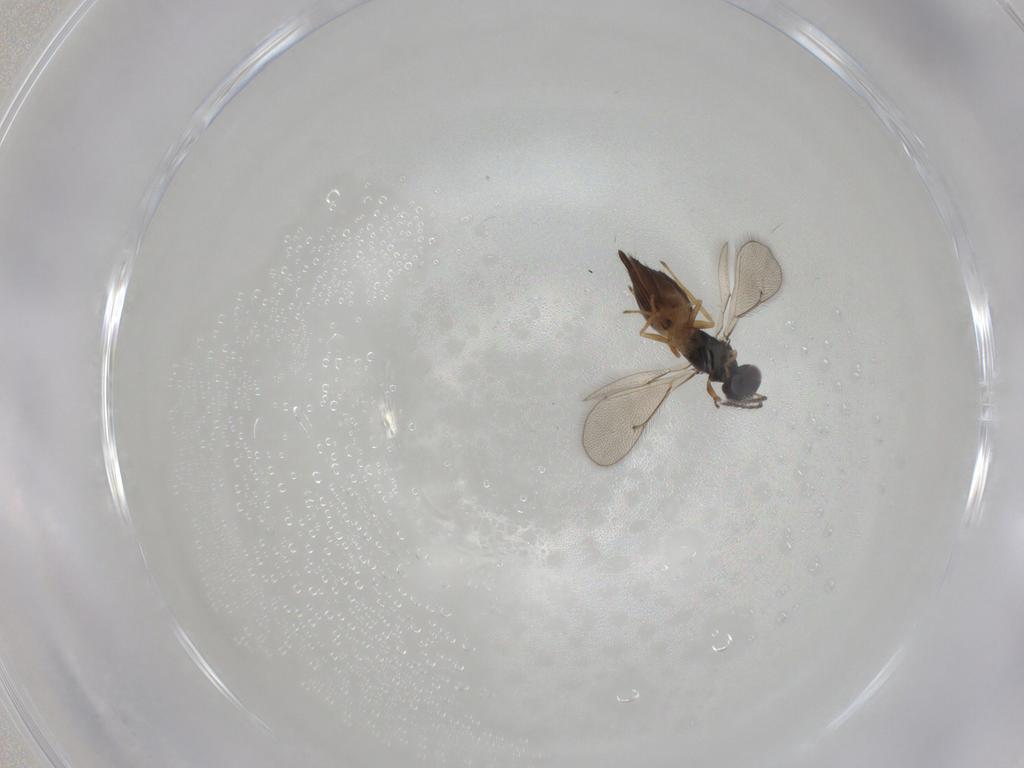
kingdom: Animalia
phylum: Arthropoda
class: Insecta
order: Hymenoptera
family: Eulophidae
